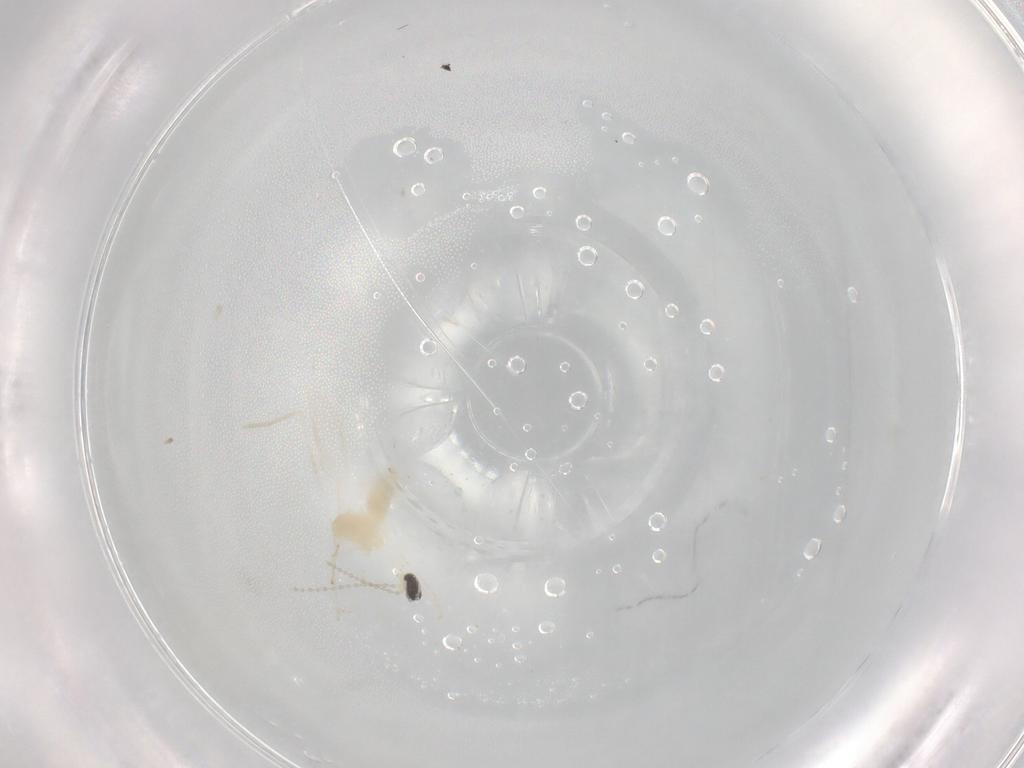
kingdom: Animalia
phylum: Arthropoda
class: Insecta
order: Diptera
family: Cecidomyiidae
